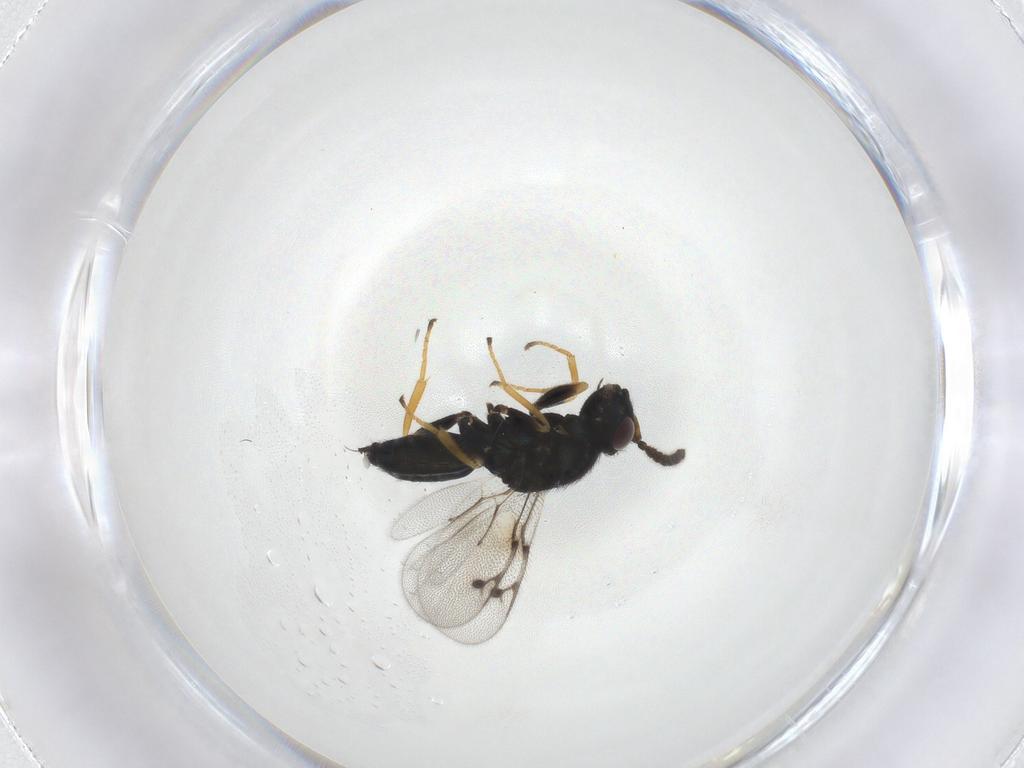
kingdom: Animalia
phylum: Arthropoda
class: Insecta
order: Hymenoptera
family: Pirenidae
